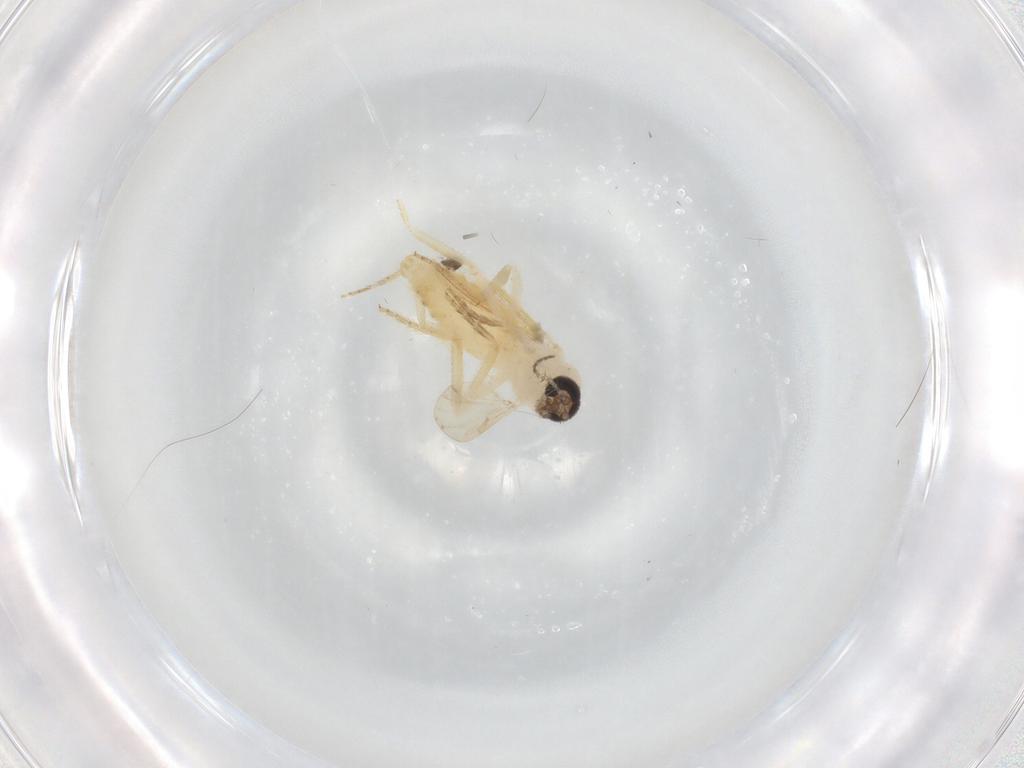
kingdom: Animalia
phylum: Arthropoda
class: Insecta
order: Diptera
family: Ceratopogonidae
